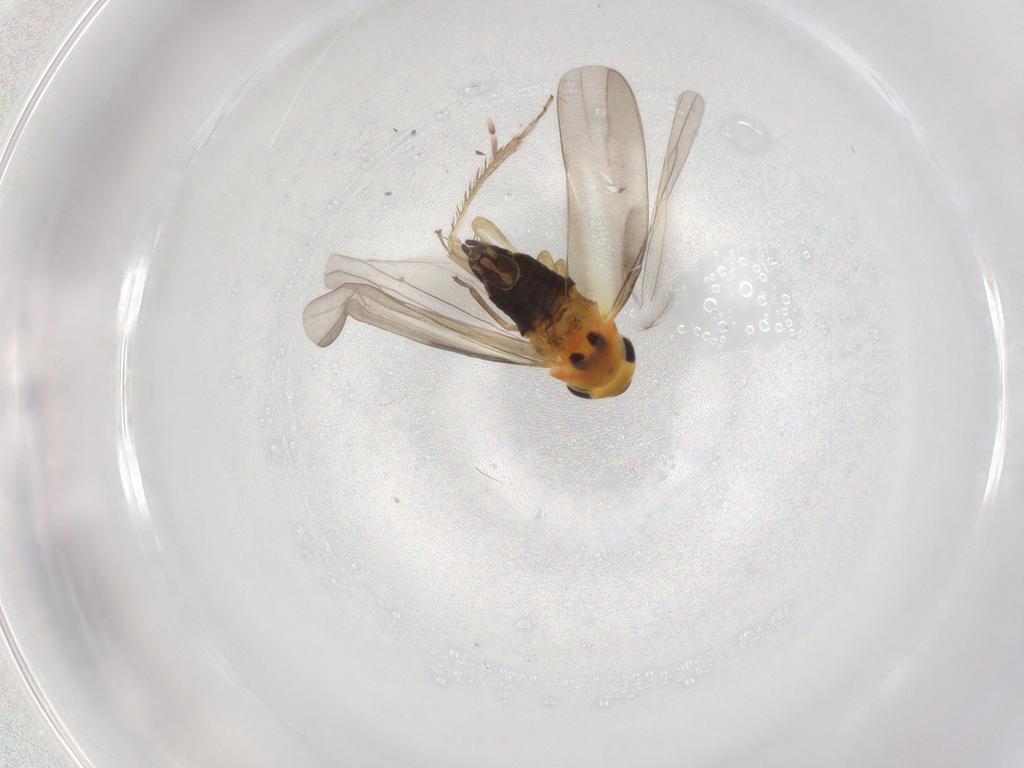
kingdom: Animalia
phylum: Arthropoda
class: Insecta
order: Hemiptera
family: Cicadellidae
